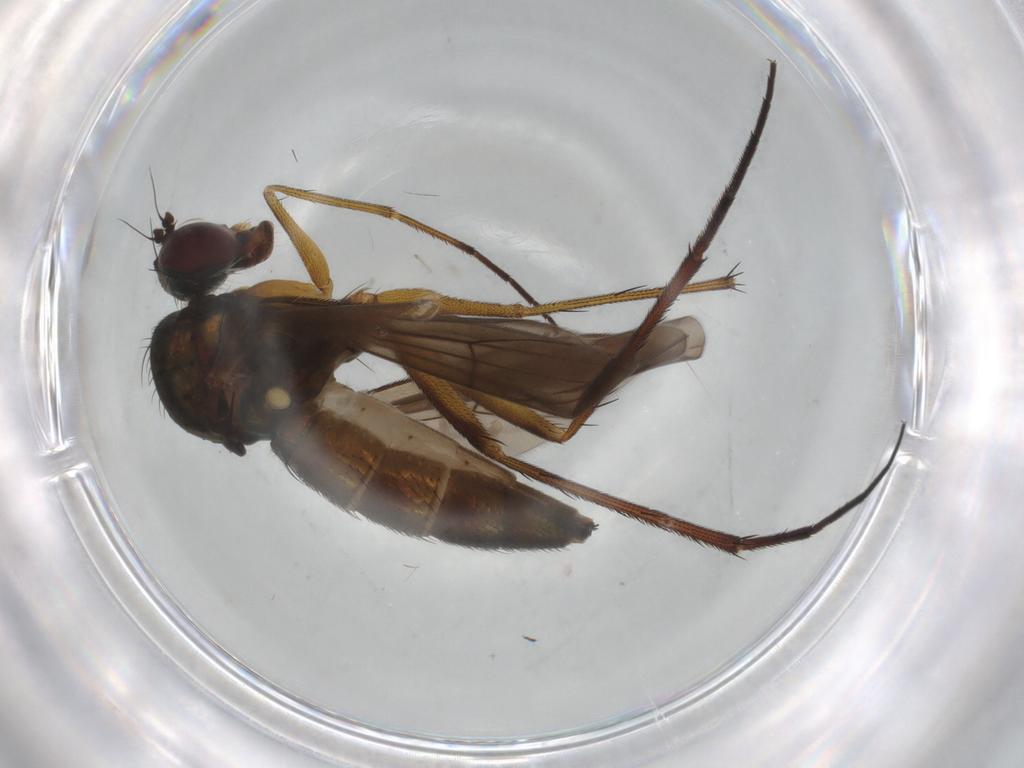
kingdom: Animalia
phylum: Arthropoda
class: Insecta
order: Diptera
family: Dolichopodidae
